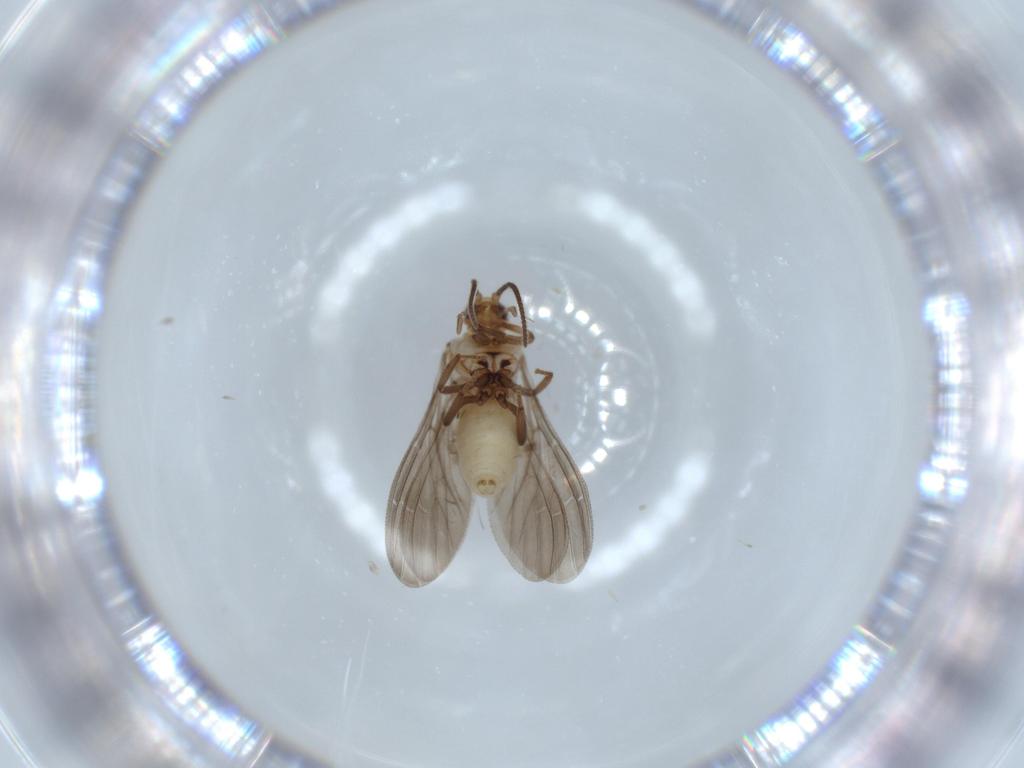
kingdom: Animalia
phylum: Arthropoda
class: Insecta
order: Neuroptera
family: Coniopterygidae
